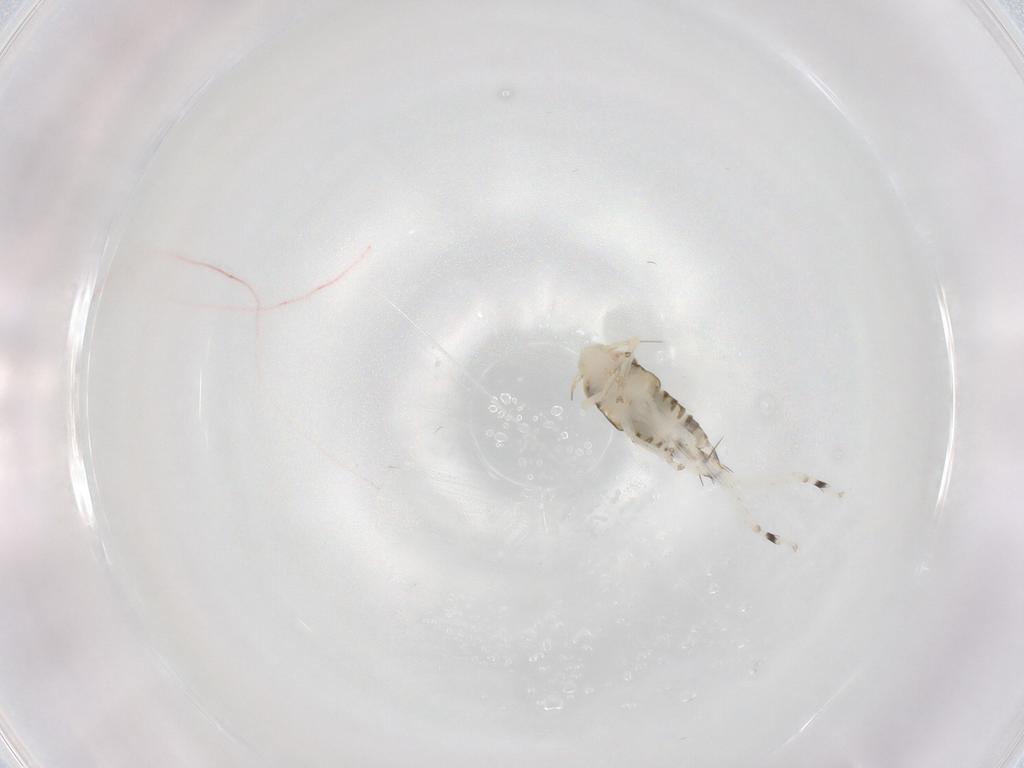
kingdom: Animalia
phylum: Arthropoda
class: Insecta
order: Hemiptera
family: Cicadellidae
